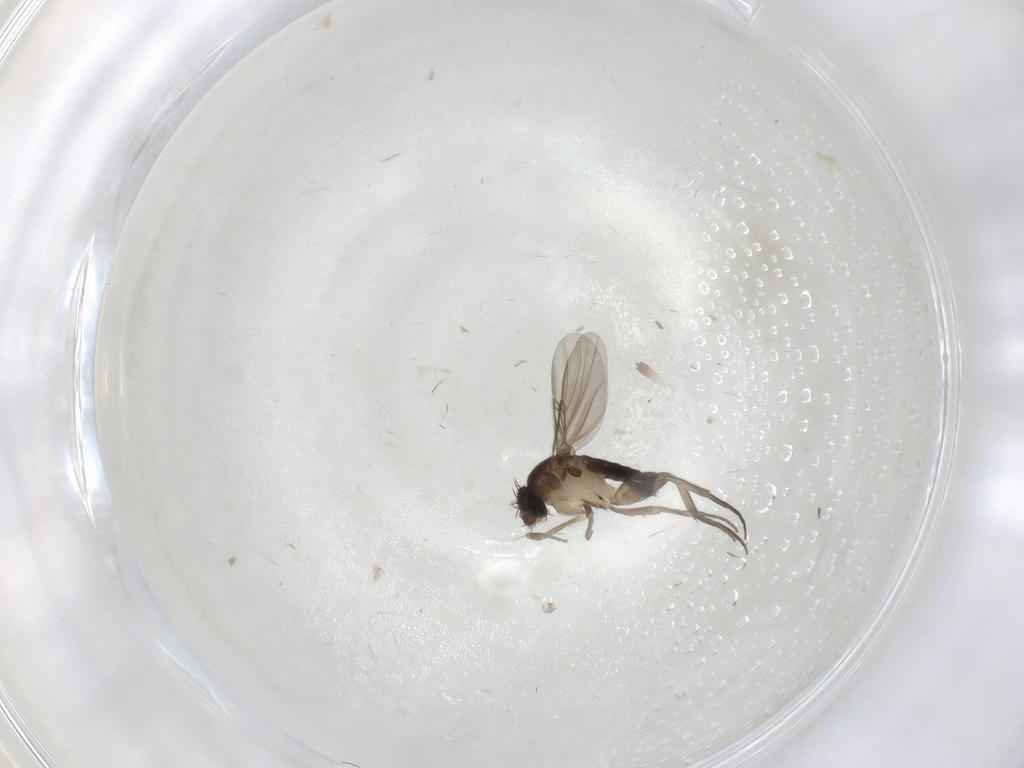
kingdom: Animalia
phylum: Arthropoda
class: Insecta
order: Diptera
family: Phoridae
